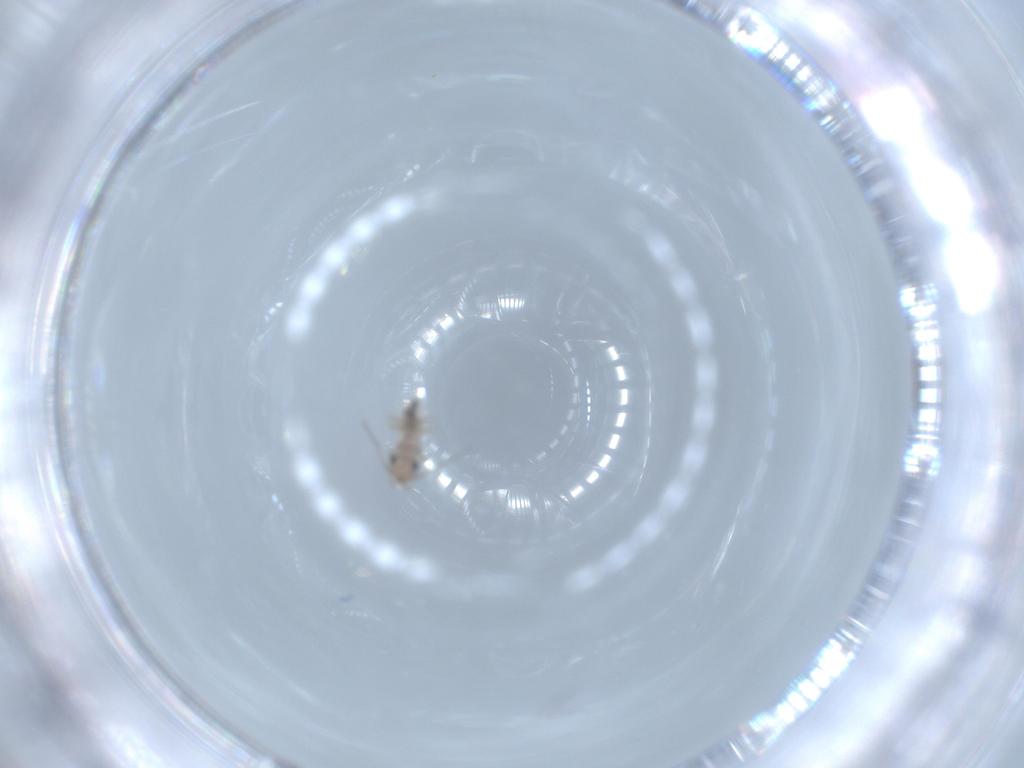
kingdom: Animalia
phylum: Arthropoda
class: Insecta
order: Psocodea
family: Lepidopsocidae
